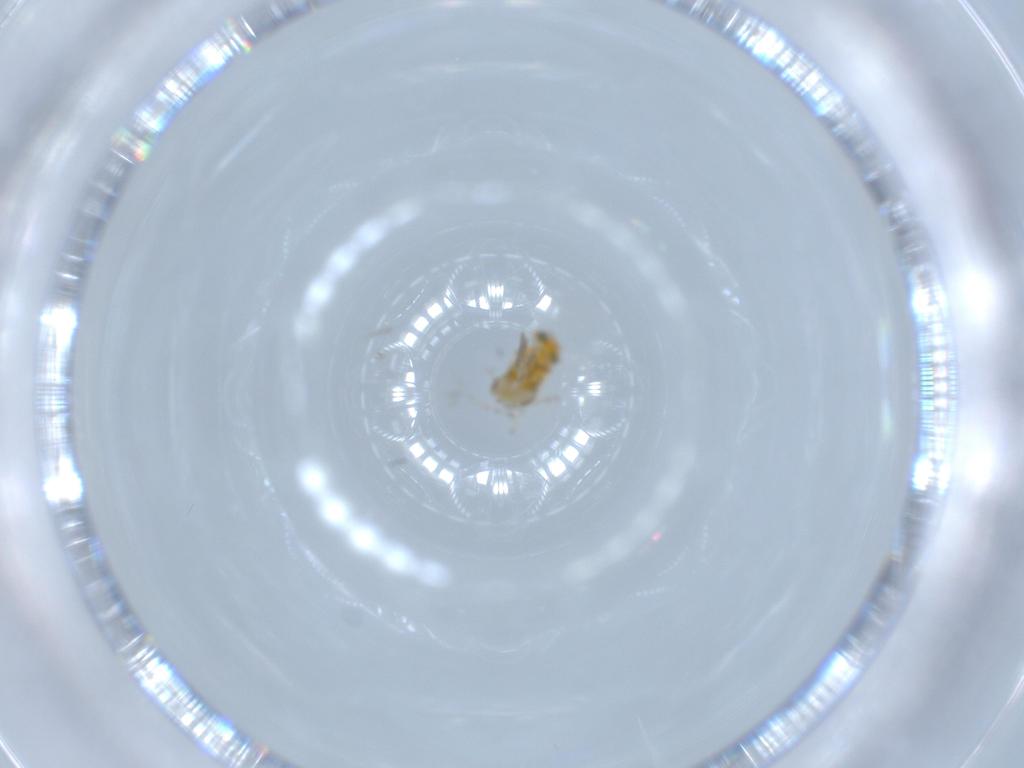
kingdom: Animalia
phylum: Arthropoda
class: Insecta
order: Hymenoptera
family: Aphelinidae
